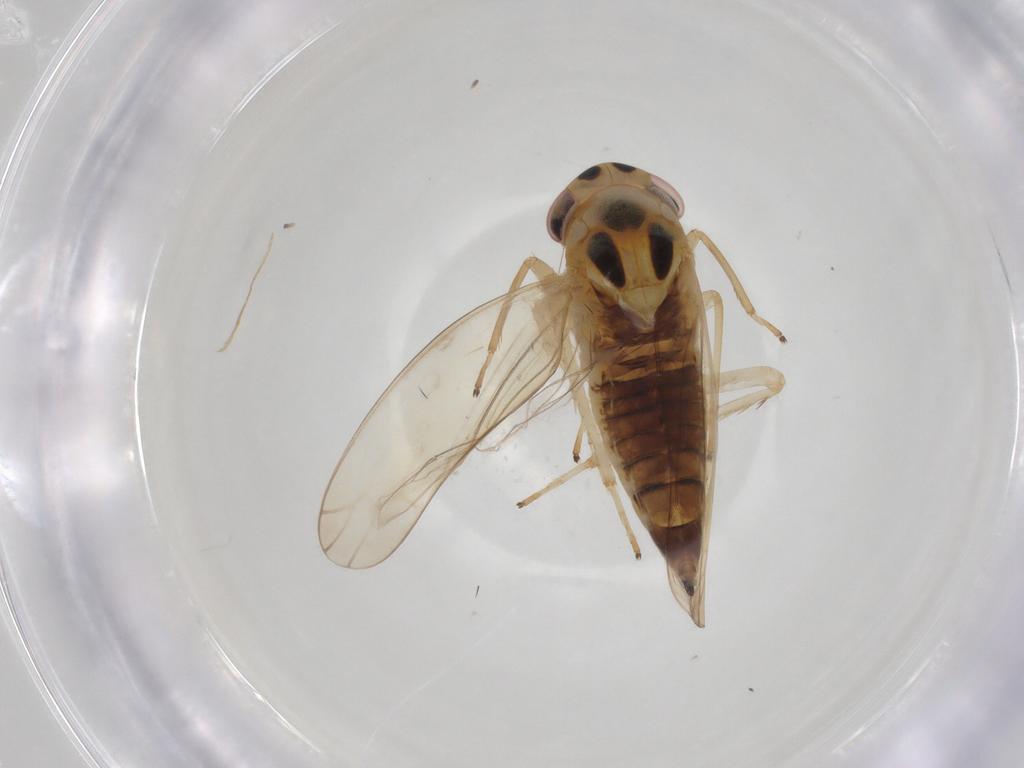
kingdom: Animalia
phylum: Arthropoda
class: Insecta
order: Hemiptera
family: Cicadellidae
